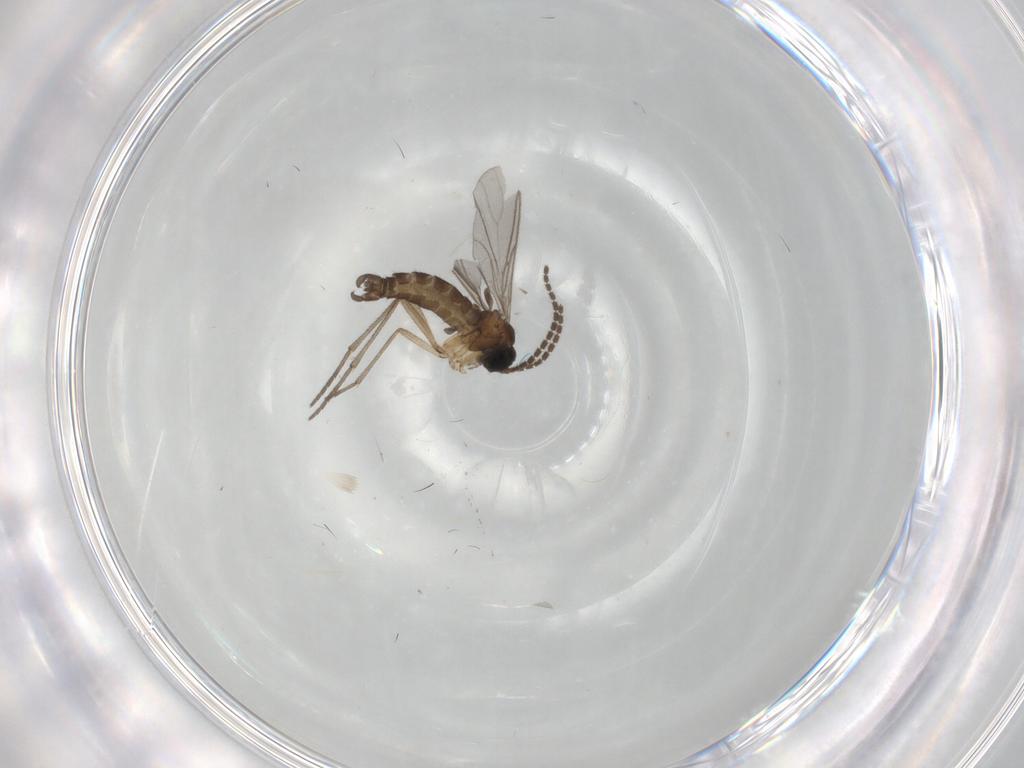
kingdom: Animalia
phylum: Arthropoda
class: Insecta
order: Diptera
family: Sciaridae
